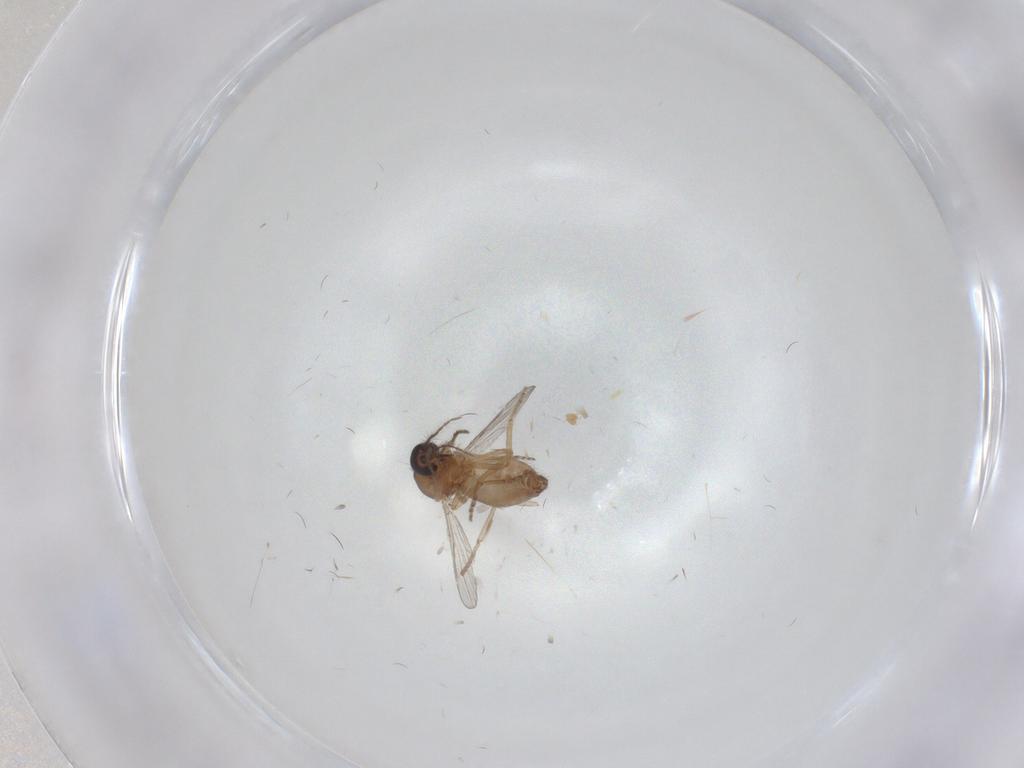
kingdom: Animalia
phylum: Arthropoda
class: Insecta
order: Diptera
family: Ceratopogonidae
